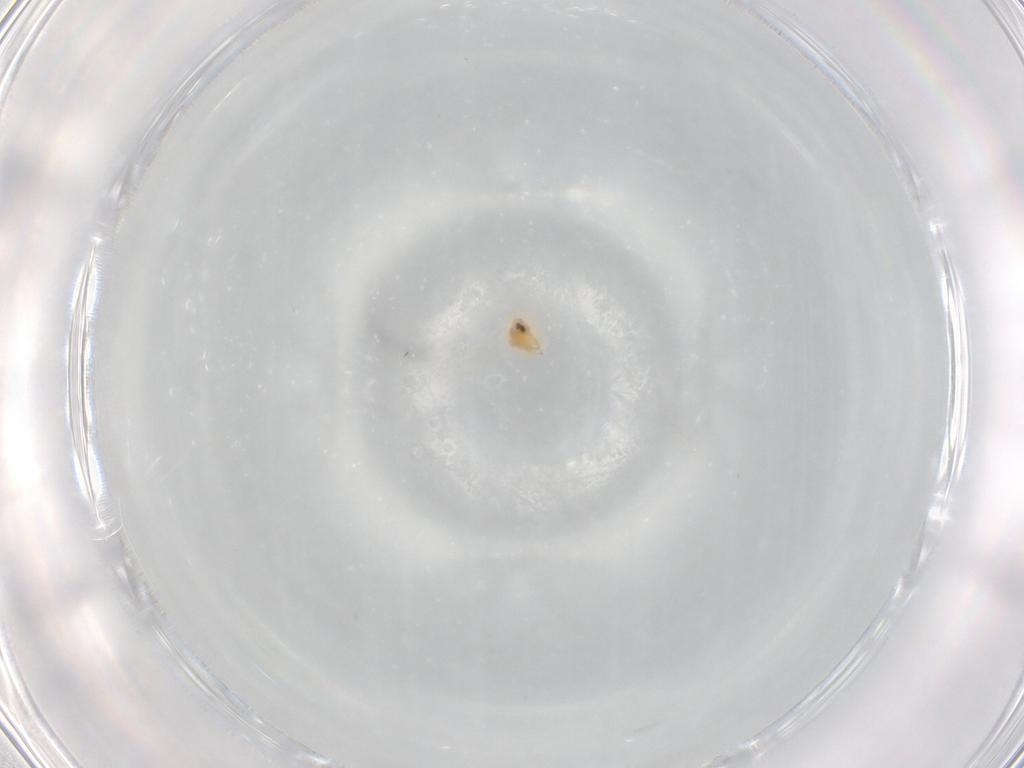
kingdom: Animalia
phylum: Arthropoda
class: Insecta
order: Hemiptera
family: Aleyrodidae
